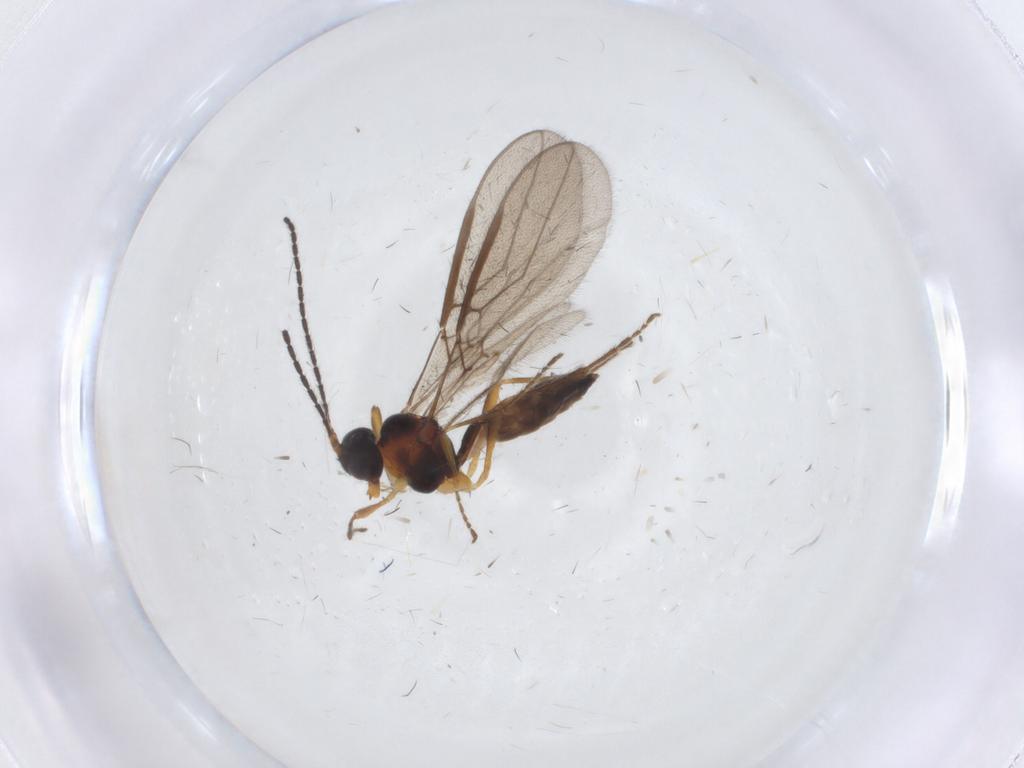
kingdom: Animalia
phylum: Arthropoda
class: Insecta
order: Hymenoptera
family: Braconidae
